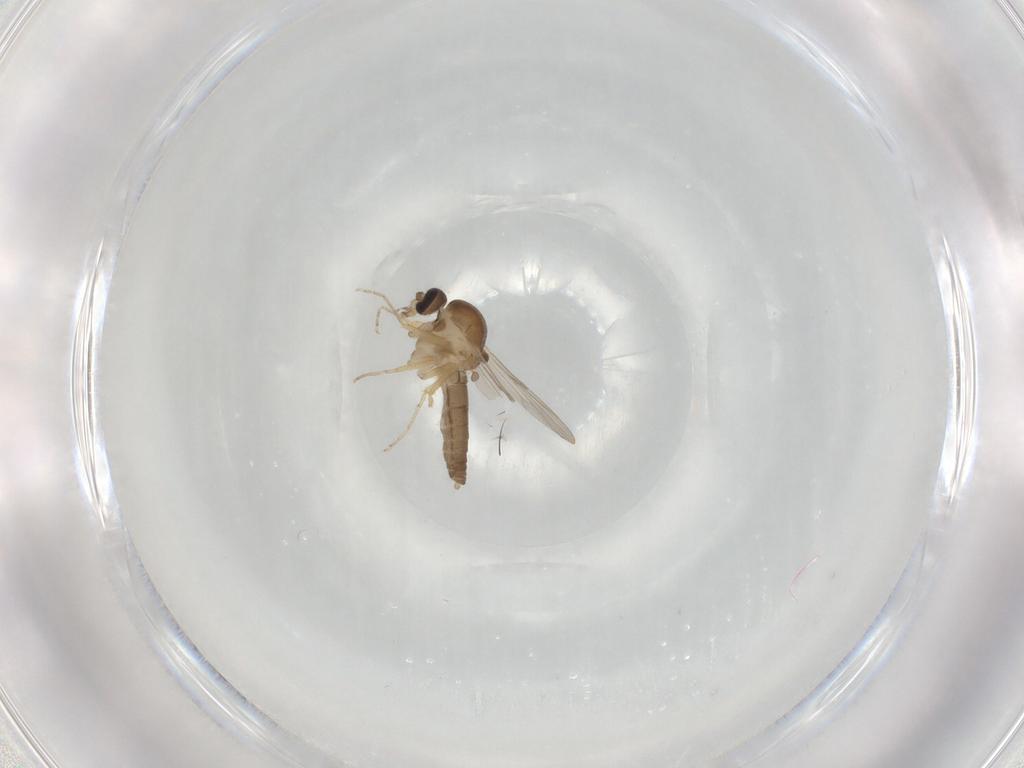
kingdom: Animalia
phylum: Arthropoda
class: Insecta
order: Diptera
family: Ceratopogonidae
